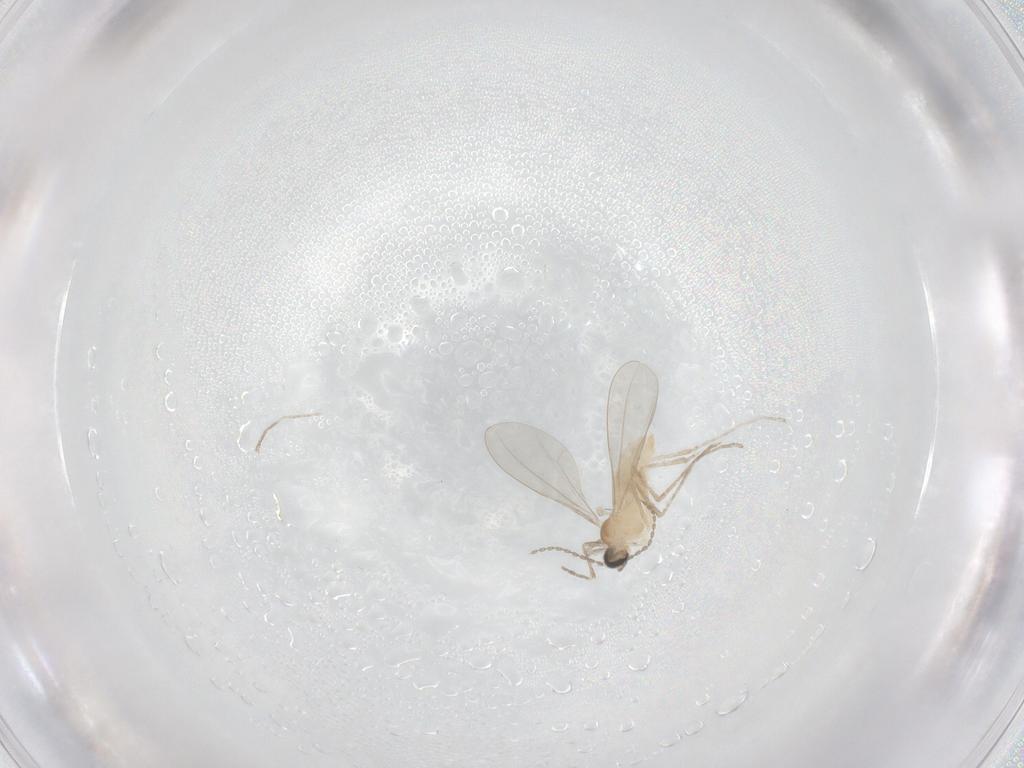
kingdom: Animalia
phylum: Arthropoda
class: Insecta
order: Diptera
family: Cecidomyiidae
